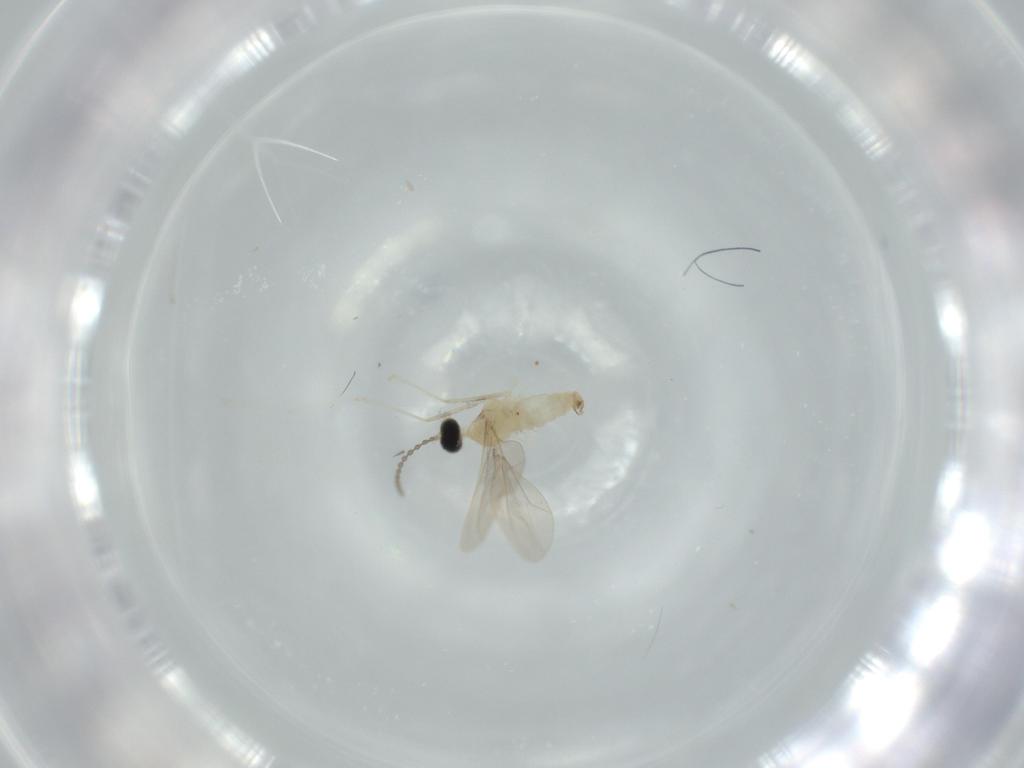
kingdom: Animalia
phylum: Arthropoda
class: Insecta
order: Diptera
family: Cecidomyiidae
